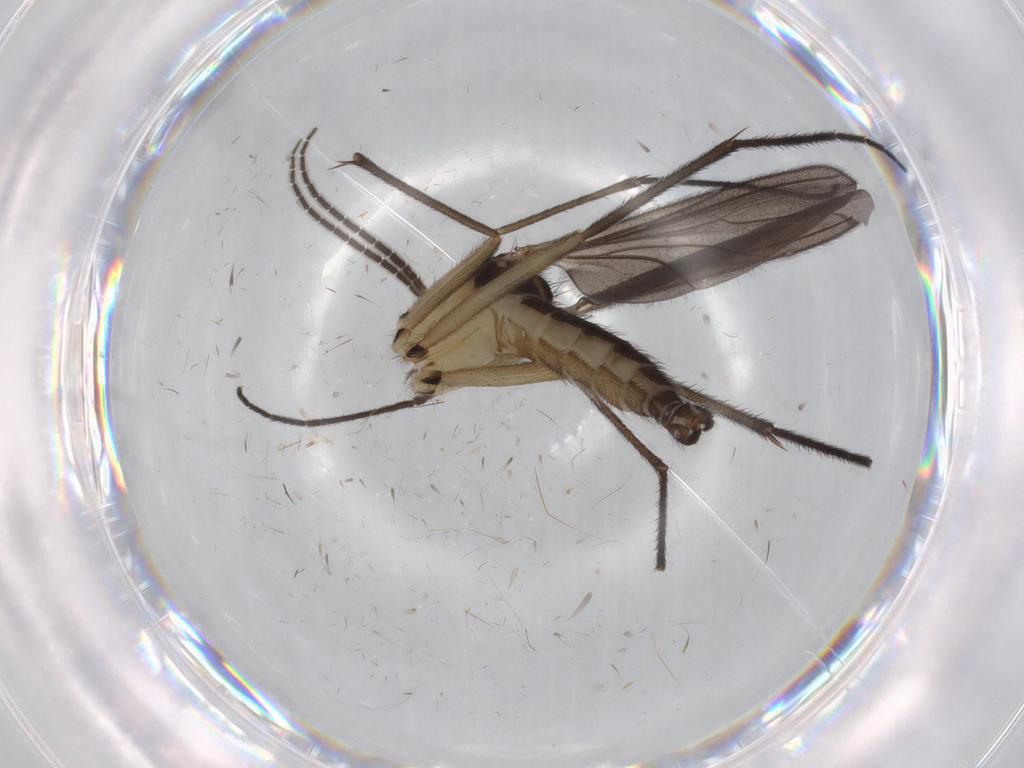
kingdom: Animalia
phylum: Arthropoda
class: Insecta
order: Diptera
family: Sciaridae
